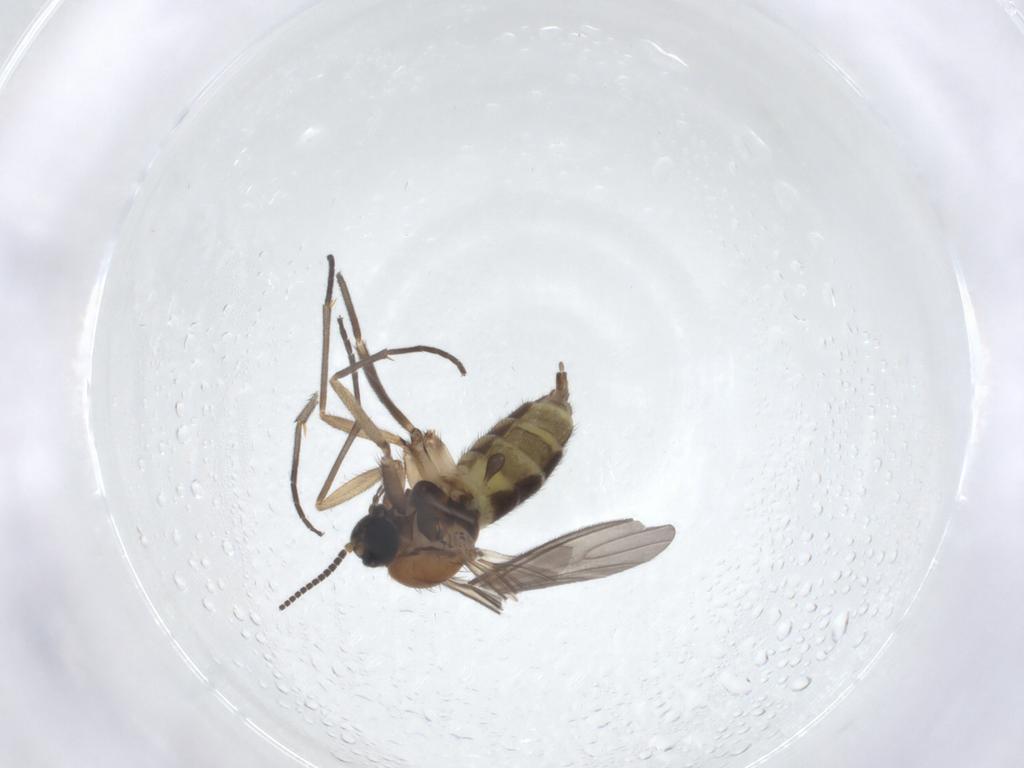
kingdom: Animalia
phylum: Arthropoda
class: Insecta
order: Diptera
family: Sciaridae
